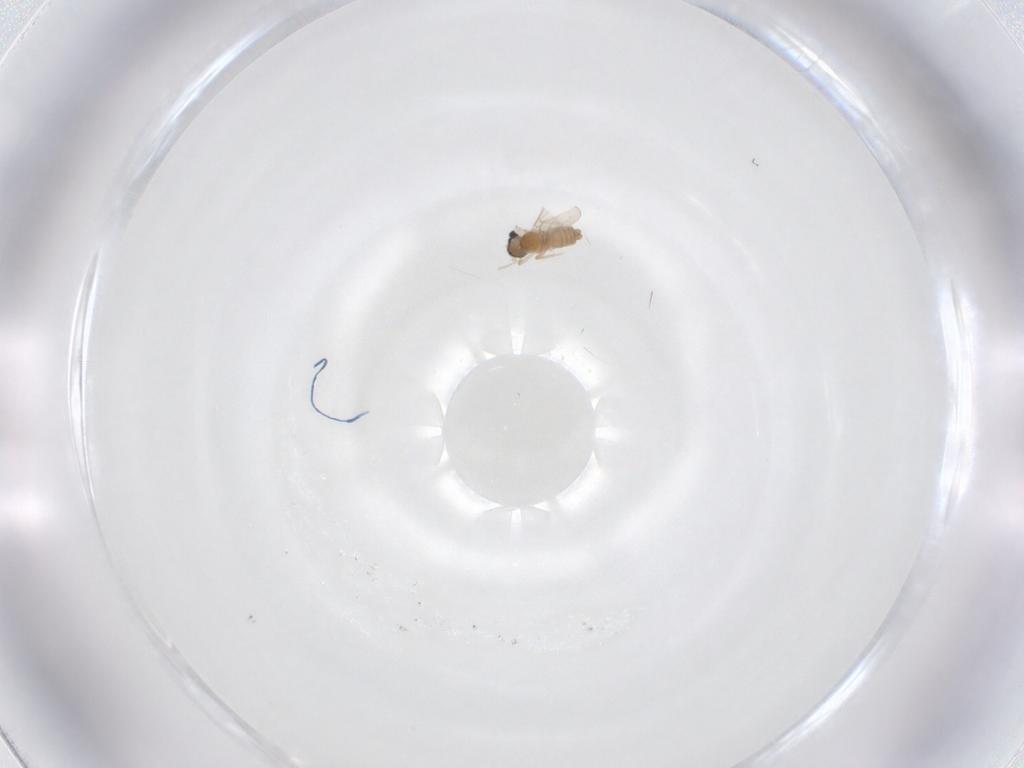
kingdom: Animalia
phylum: Arthropoda
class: Insecta
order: Diptera
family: Cecidomyiidae
